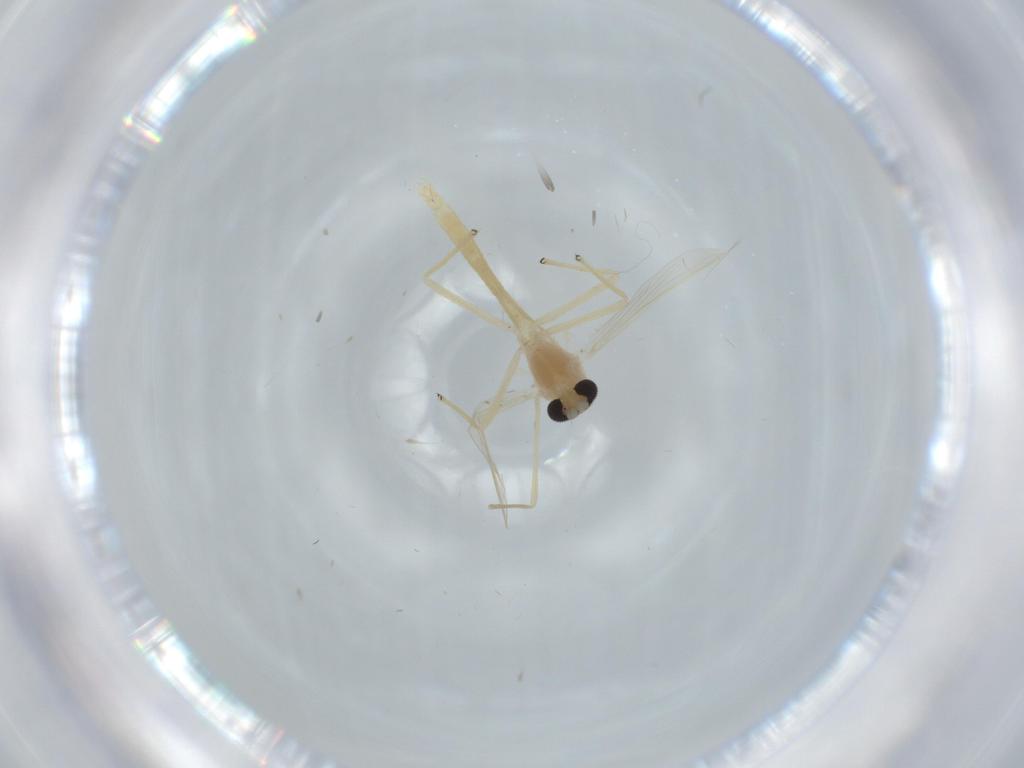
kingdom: Animalia
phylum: Arthropoda
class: Insecta
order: Diptera
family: Chironomidae
